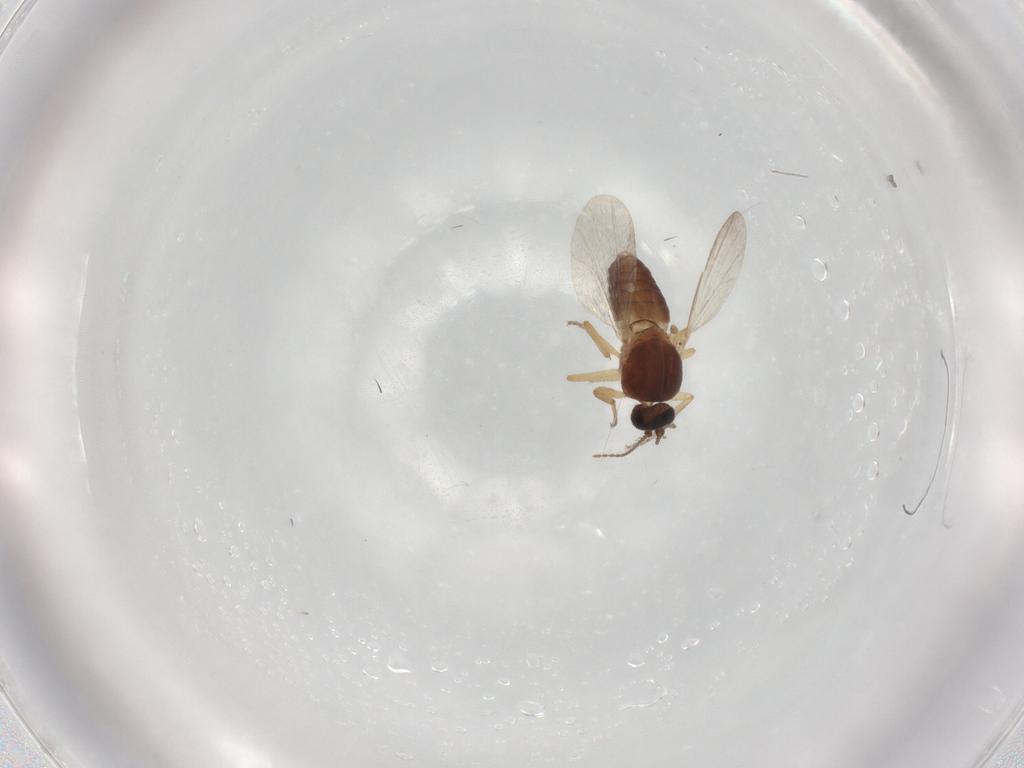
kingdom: Animalia
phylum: Arthropoda
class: Insecta
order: Diptera
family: Ceratopogonidae
